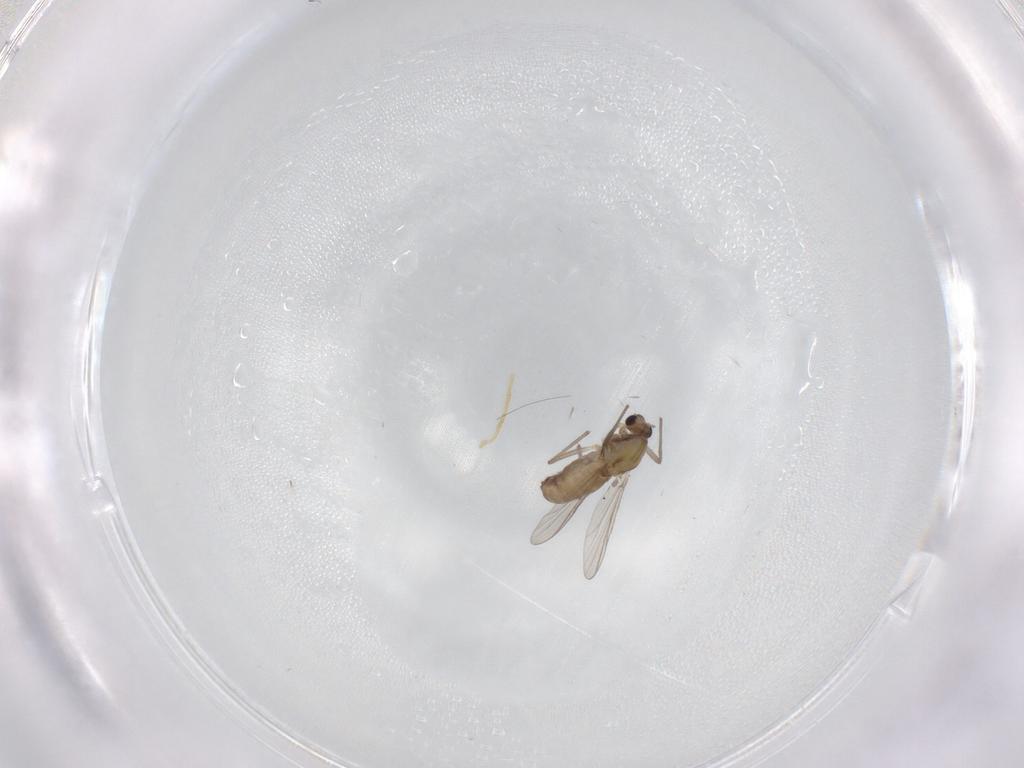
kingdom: Animalia
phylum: Arthropoda
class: Insecta
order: Diptera
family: Chironomidae
